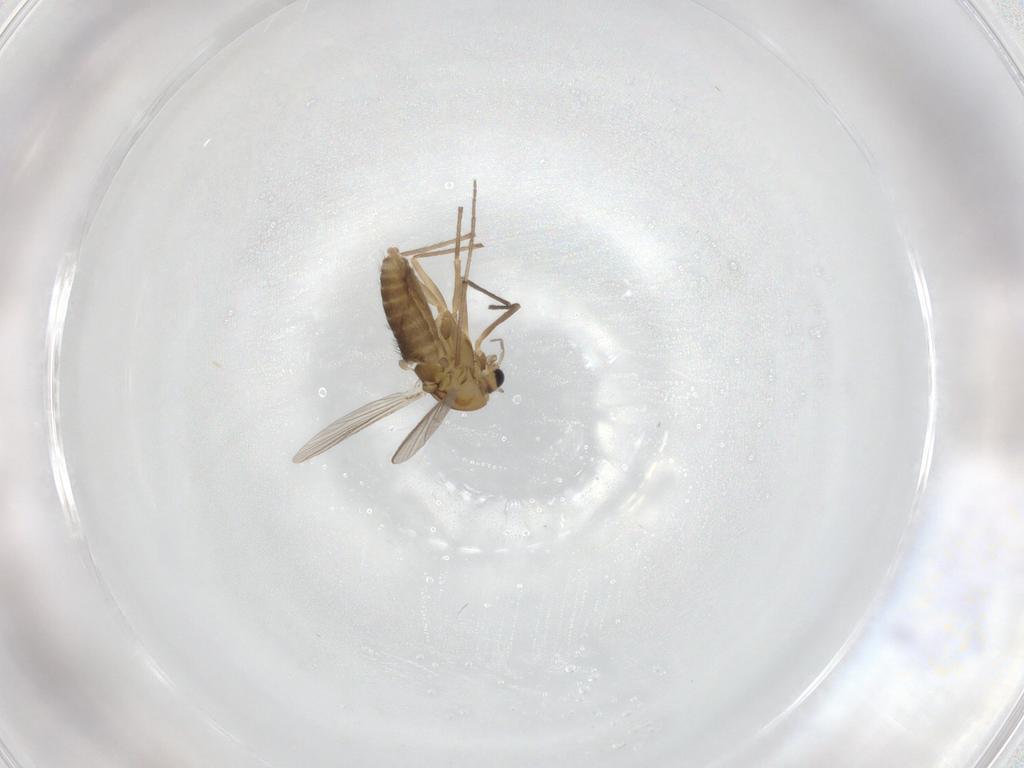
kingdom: Animalia
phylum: Arthropoda
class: Insecta
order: Diptera
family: Chironomidae
